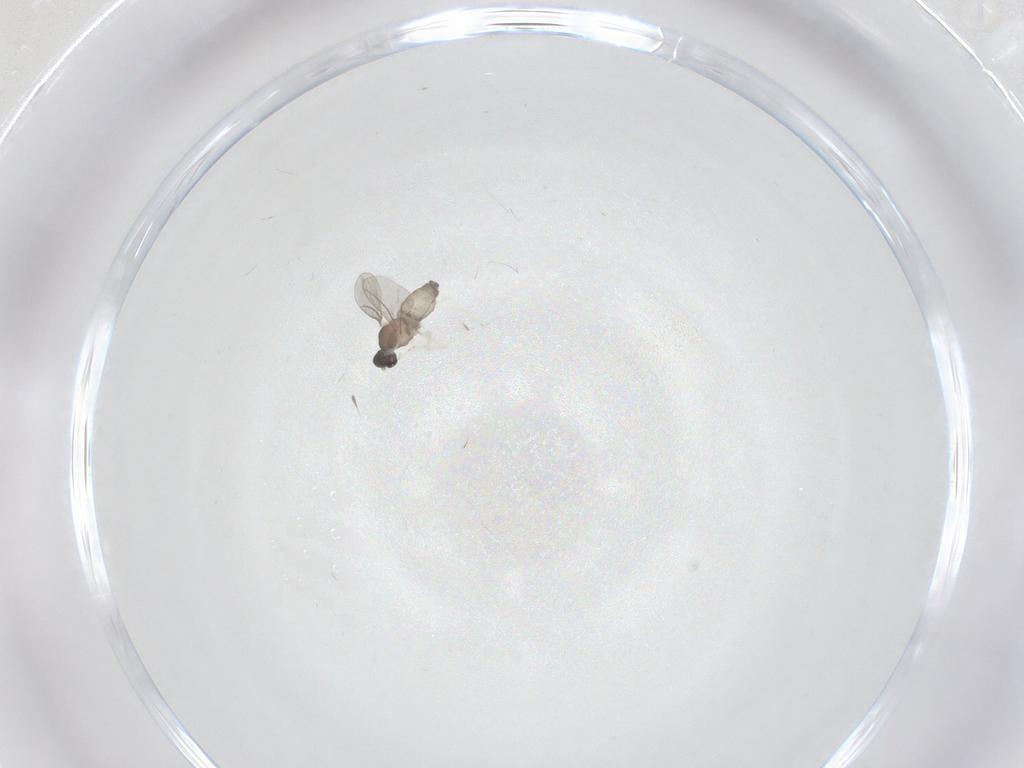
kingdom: Animalia
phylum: Arthropoda
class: Insecta
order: Diptera
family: Cecidomyiidae
